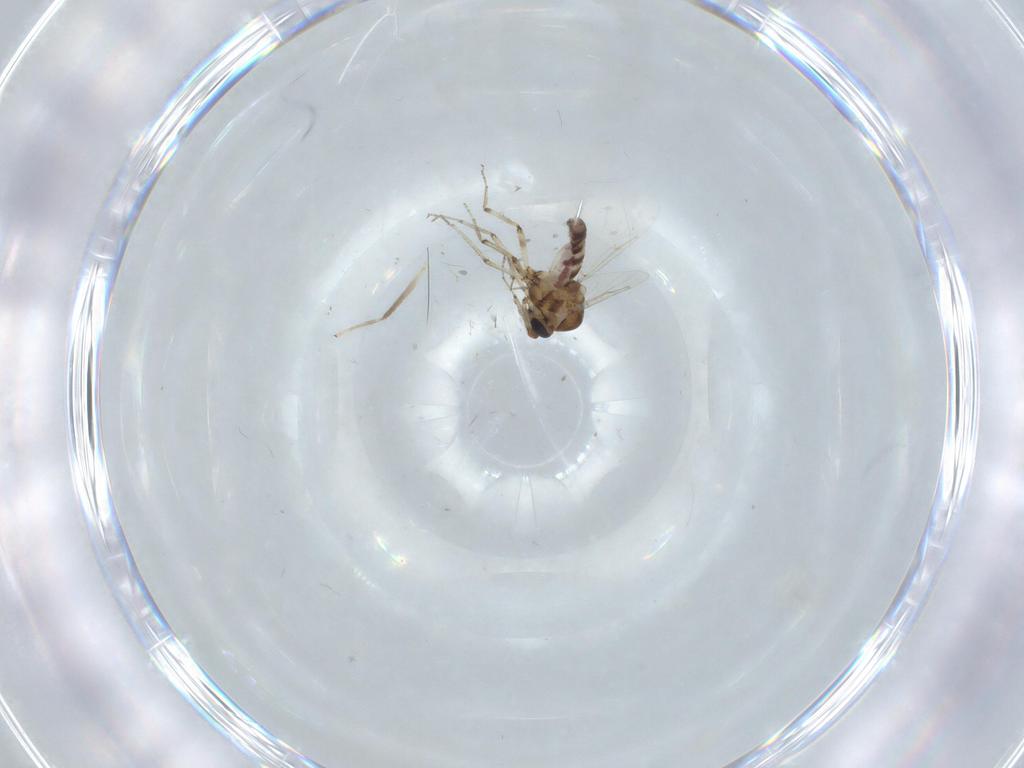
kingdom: Animalia
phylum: Arthropoda
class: Insecta
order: Diptera
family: Ceratopogonidae
